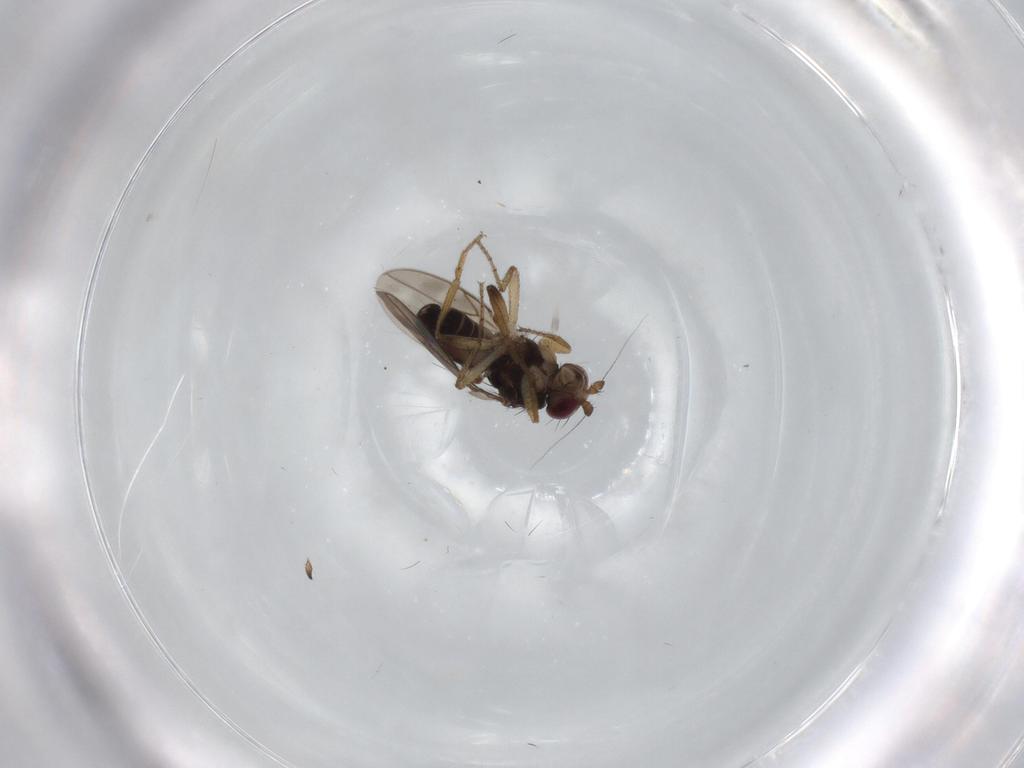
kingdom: Animalia
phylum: Arthropoda
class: Insecta
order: Diptera
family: Sphaeroceridae
